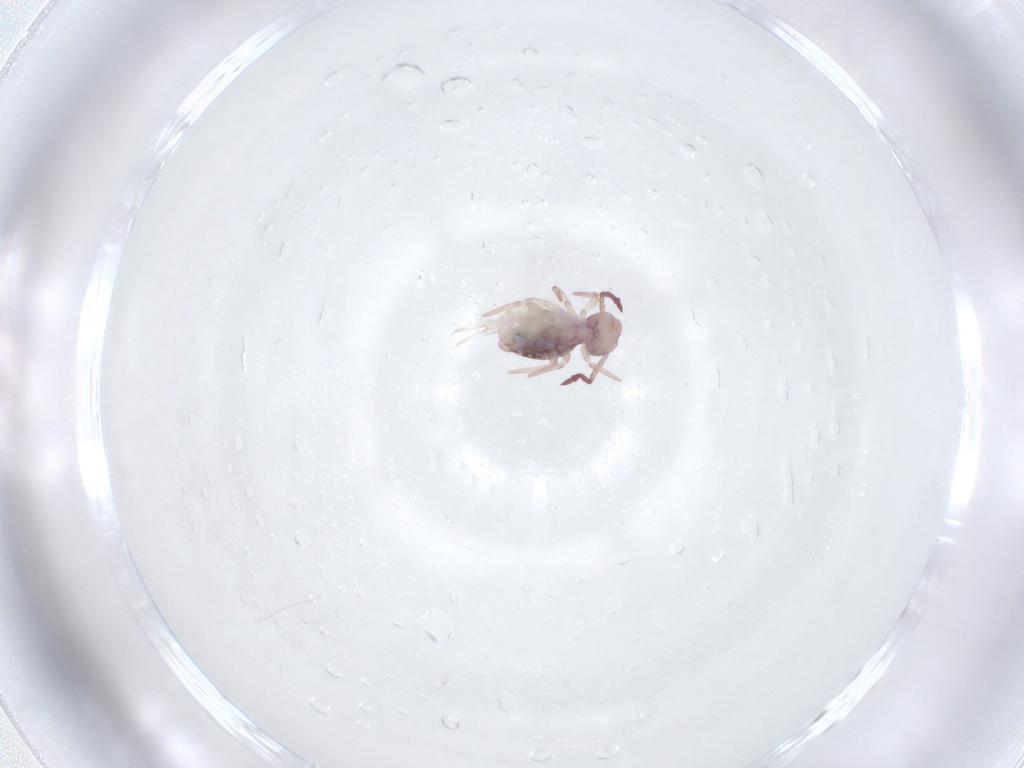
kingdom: Animalia
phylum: Arthropoda
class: Collembola
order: Symphypleona
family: Dicyrtomidae
